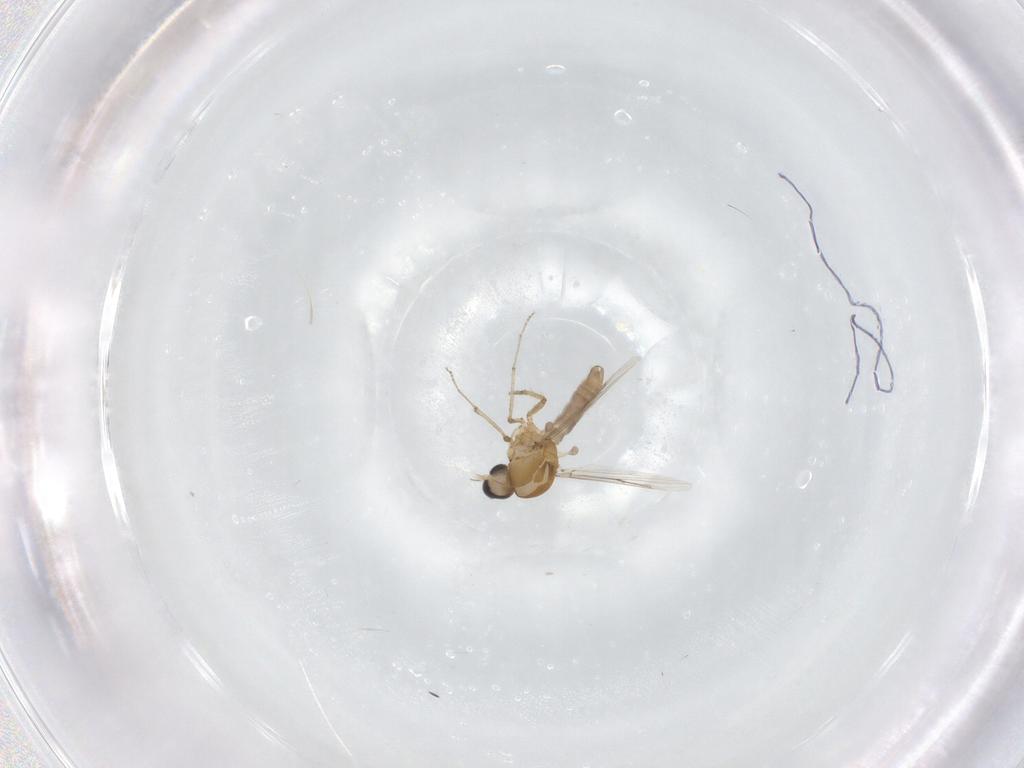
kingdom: Animalia
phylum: Arthropoda
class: Insecta
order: Diptera
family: Ceratopogonidae
